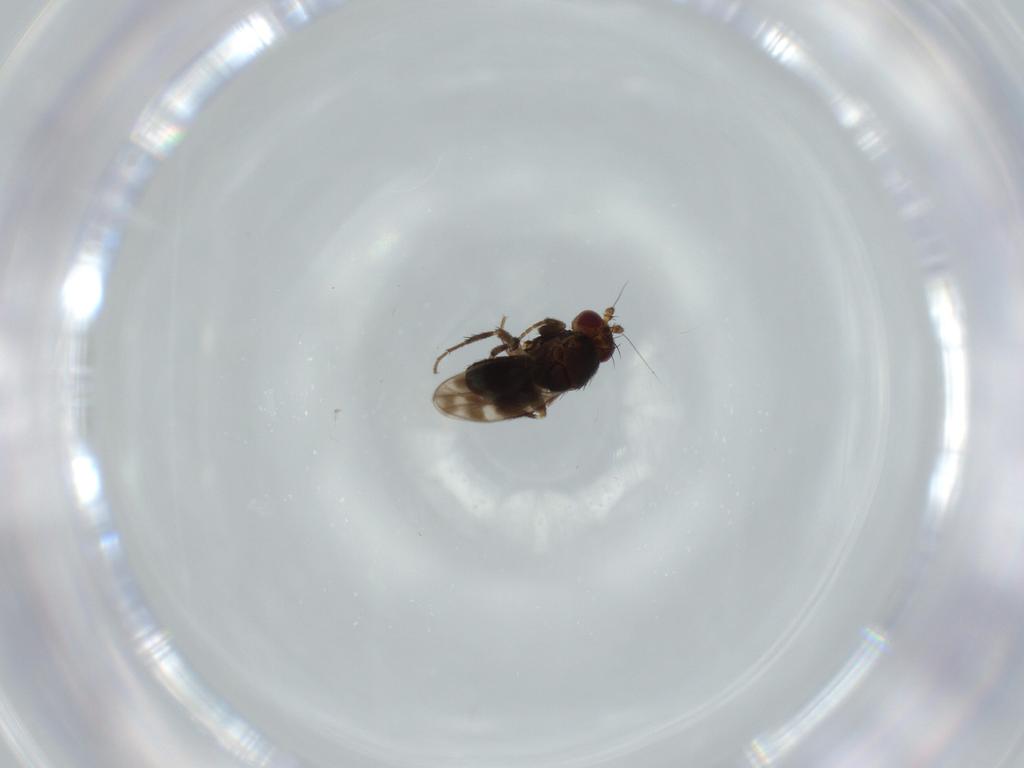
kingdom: Animalia
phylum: Arthropoda
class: Insecta
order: Diptera
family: Sphaeroceridae
